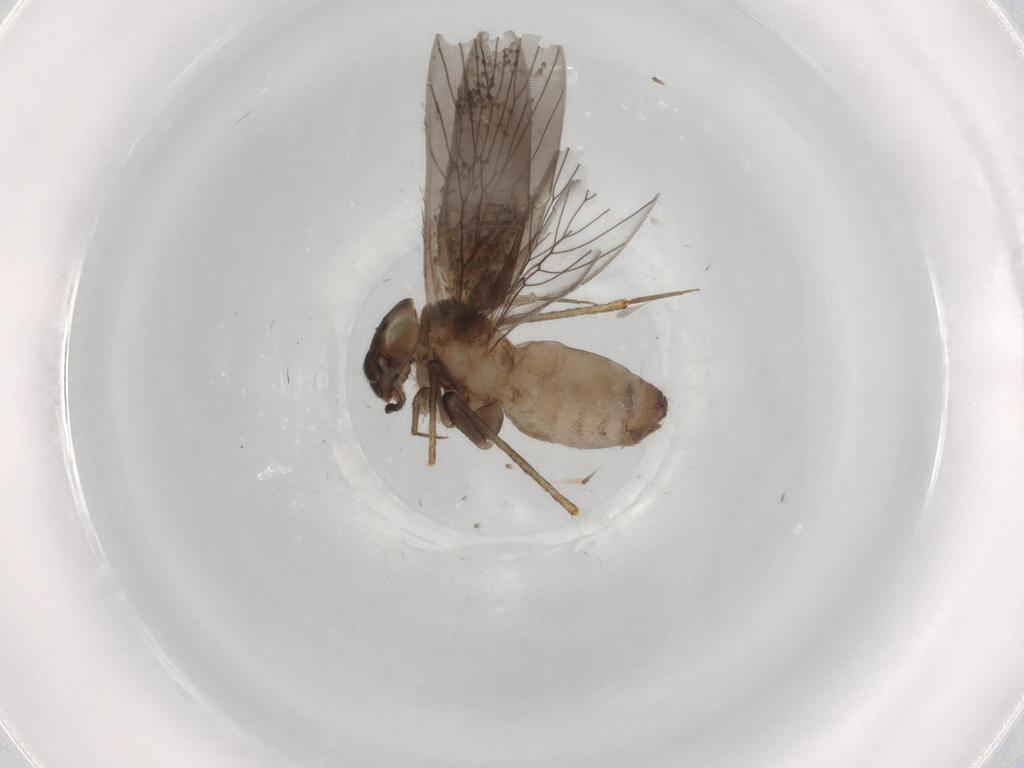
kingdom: Animalia
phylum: Arthropoda
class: Insecta
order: Psocodea
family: Lepidopsocidae
